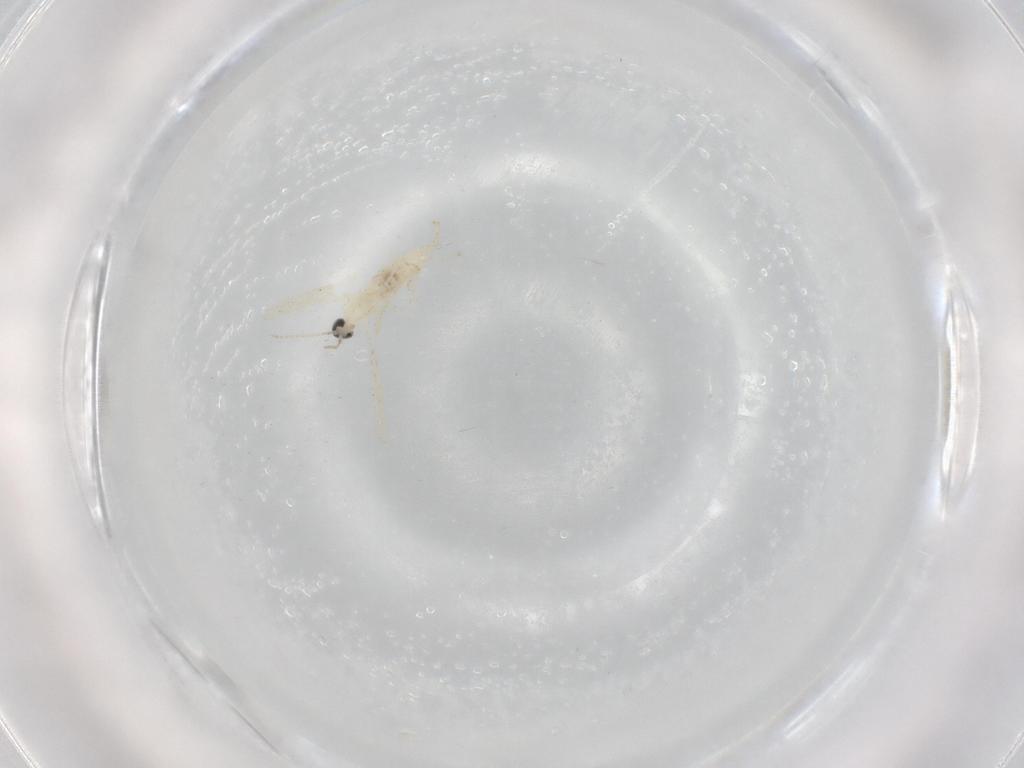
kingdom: Animalia
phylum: Arthropoda
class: Insecta
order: Diptera
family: Cecidomyiidae
